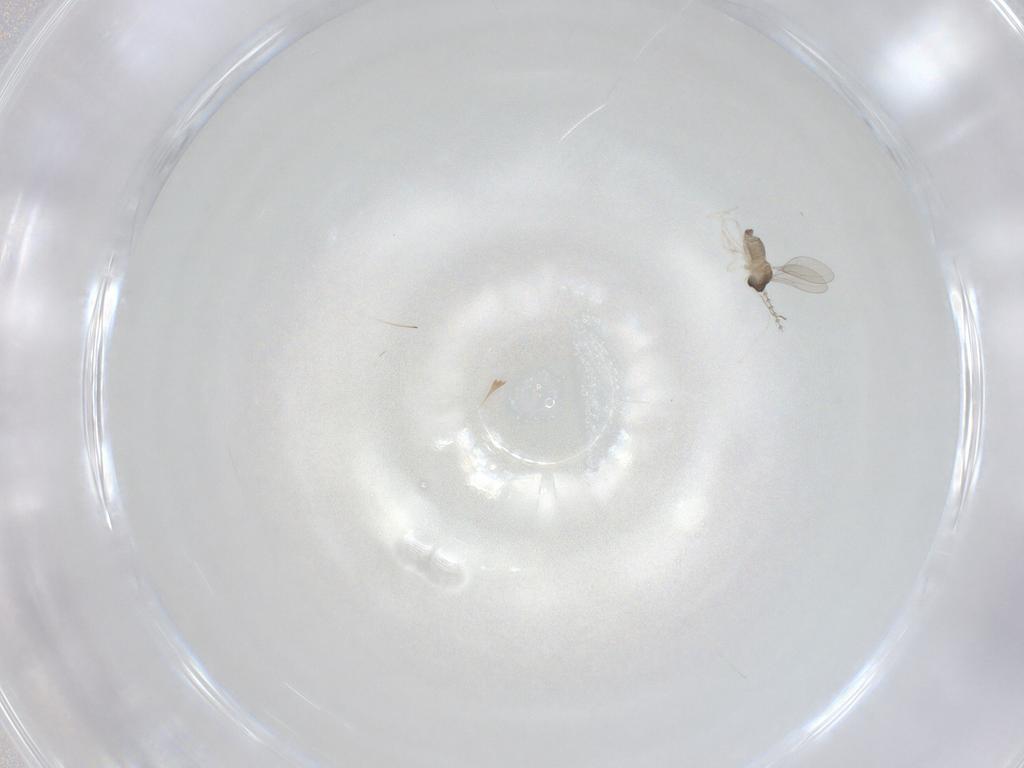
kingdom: Animalia
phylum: Arthropoda
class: Insecta
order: Diptera
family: Cecidomyiidae
